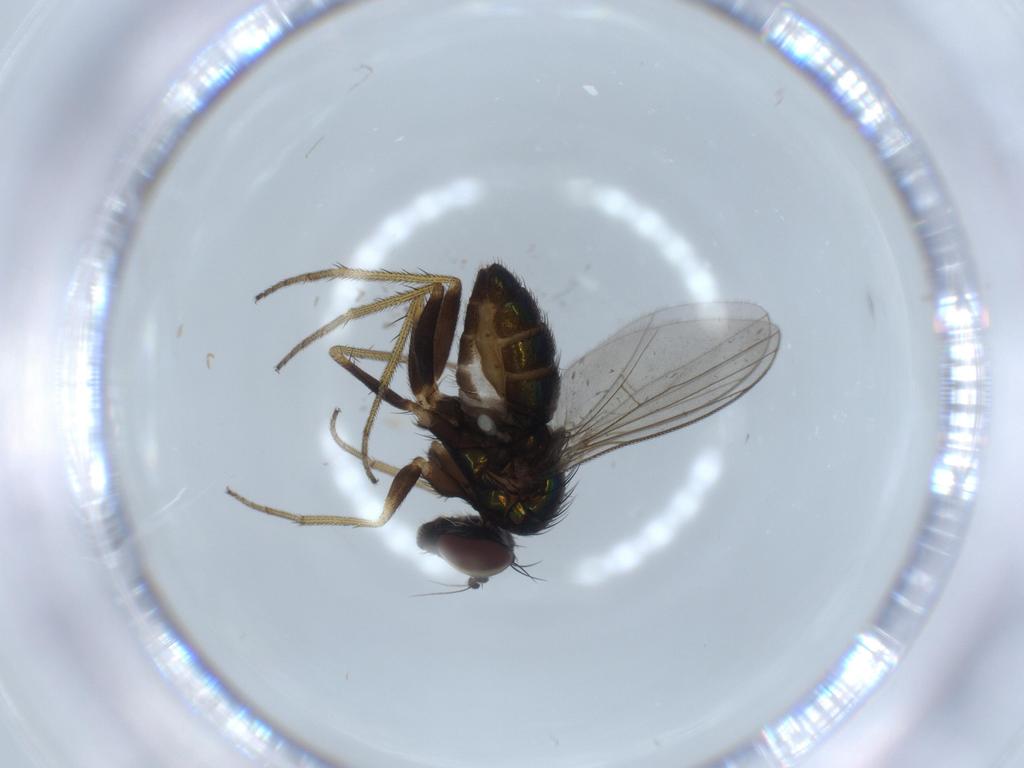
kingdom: Animalia
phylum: Arthropoda
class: Insecta
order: Diptera
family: Dolichopodidae
